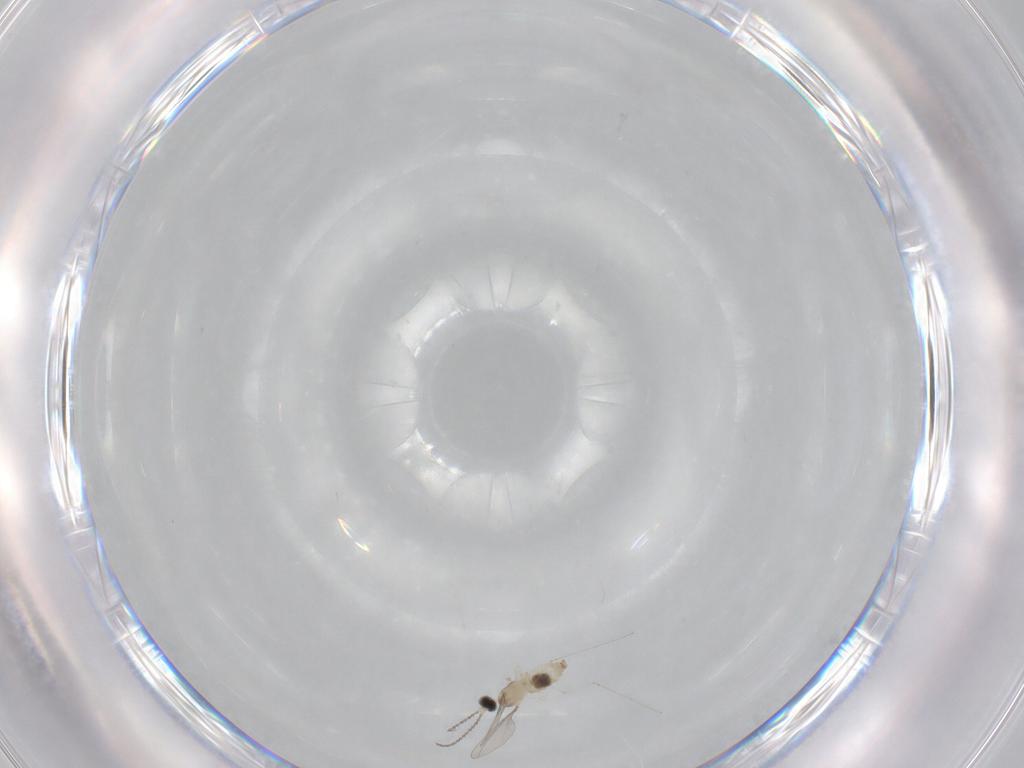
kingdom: Animalia
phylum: Arthropoda
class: Insecta
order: Diptera
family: Cecidomyiidae
